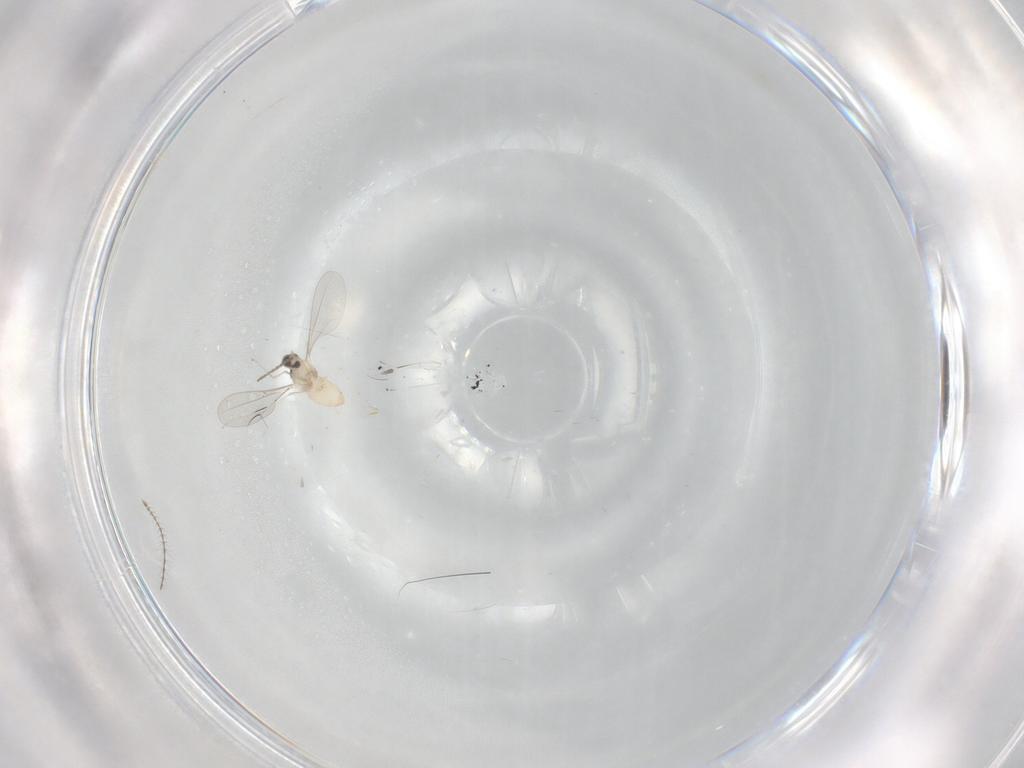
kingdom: Animalia
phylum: Arthropoda
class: Insecta
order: Diptera
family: Cecidomyiidae
